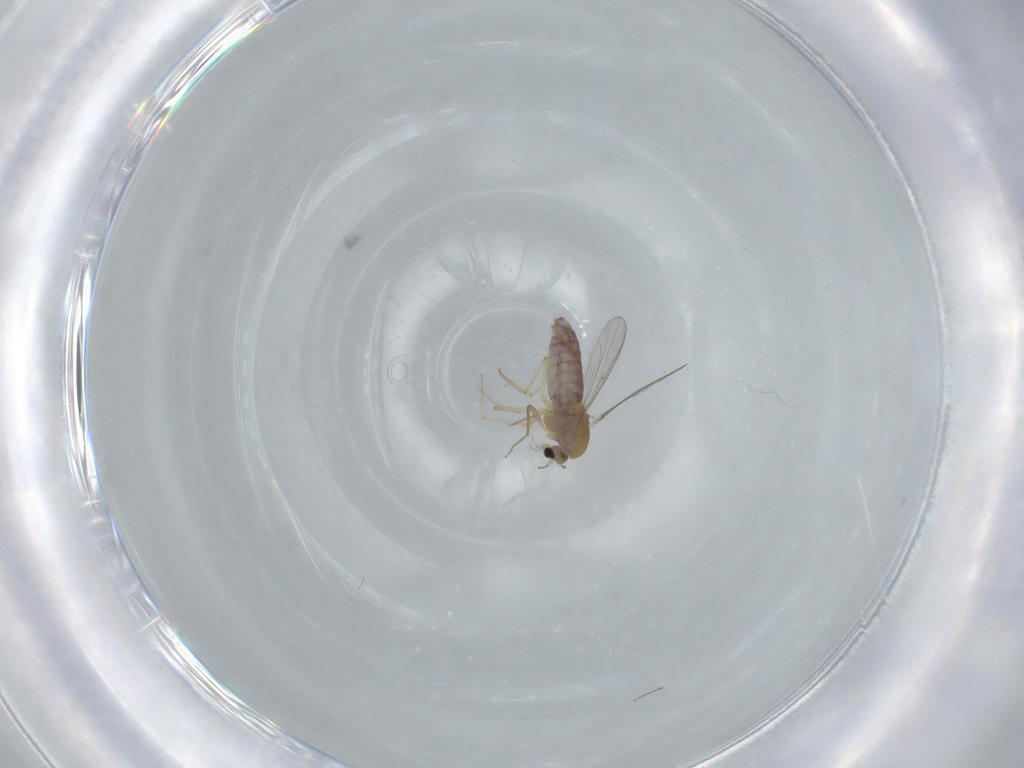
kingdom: Animalia
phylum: Arthropoda
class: Insecta
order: Diptera
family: Chironomidae
